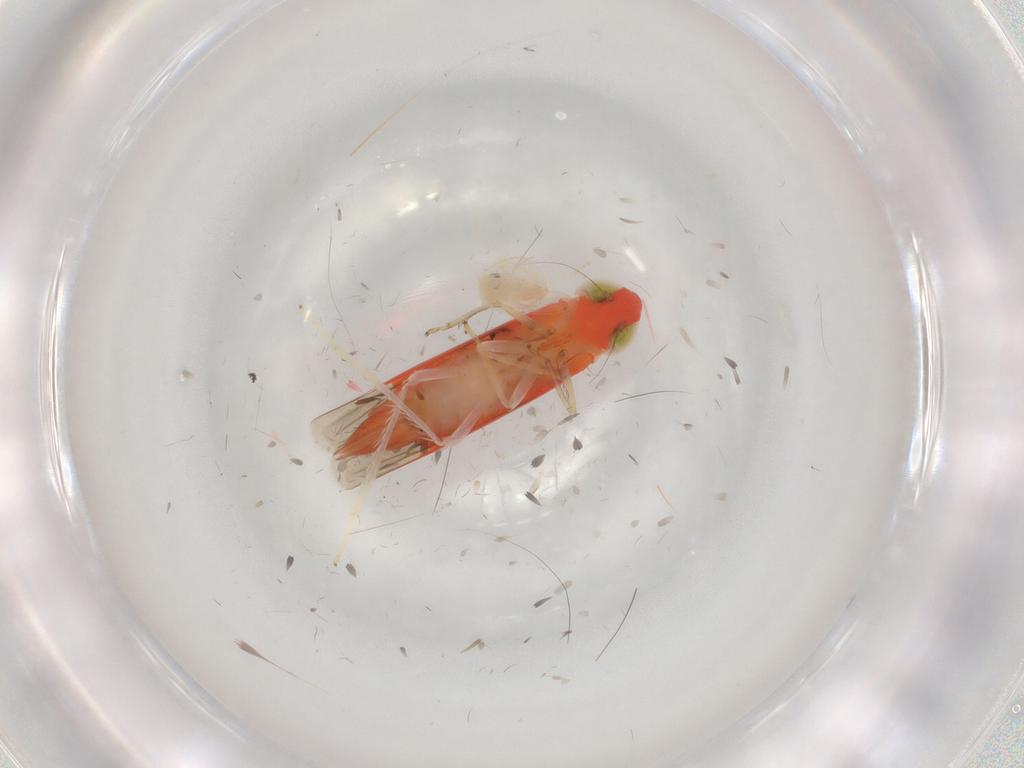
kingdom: Animalia
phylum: Arthropoda
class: Insecta
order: Hemiptera
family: Cicadellidae
